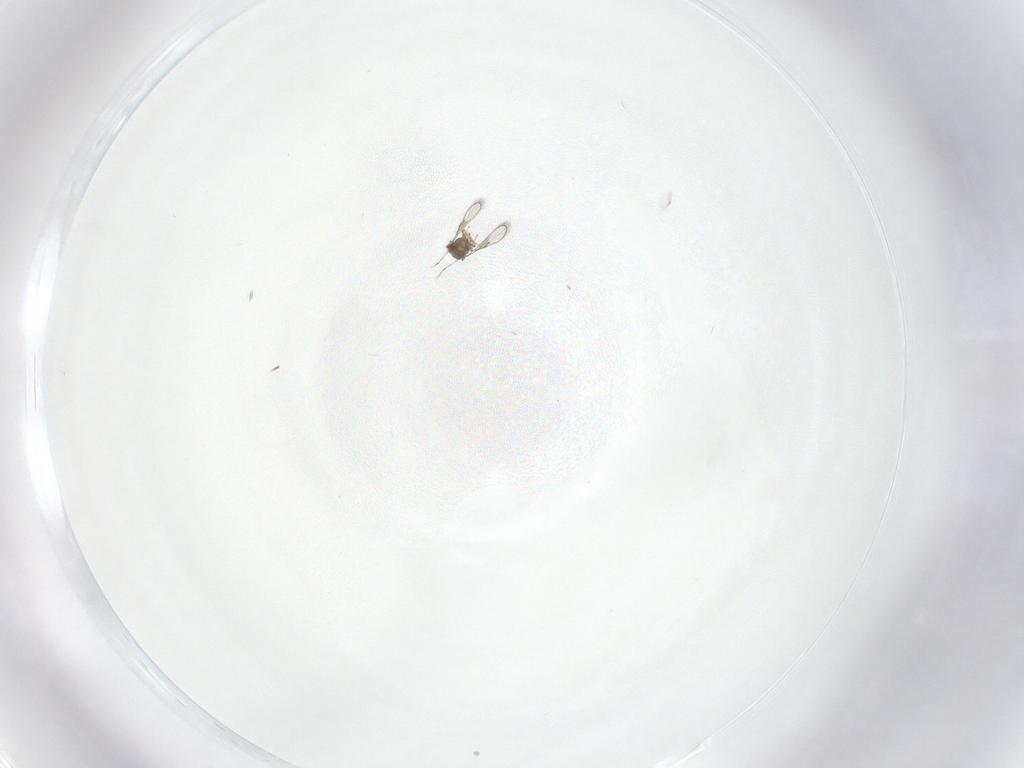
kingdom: Animalia
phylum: Arthropoda
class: Insecta
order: Hymenoptera
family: Trichogrammatidae
